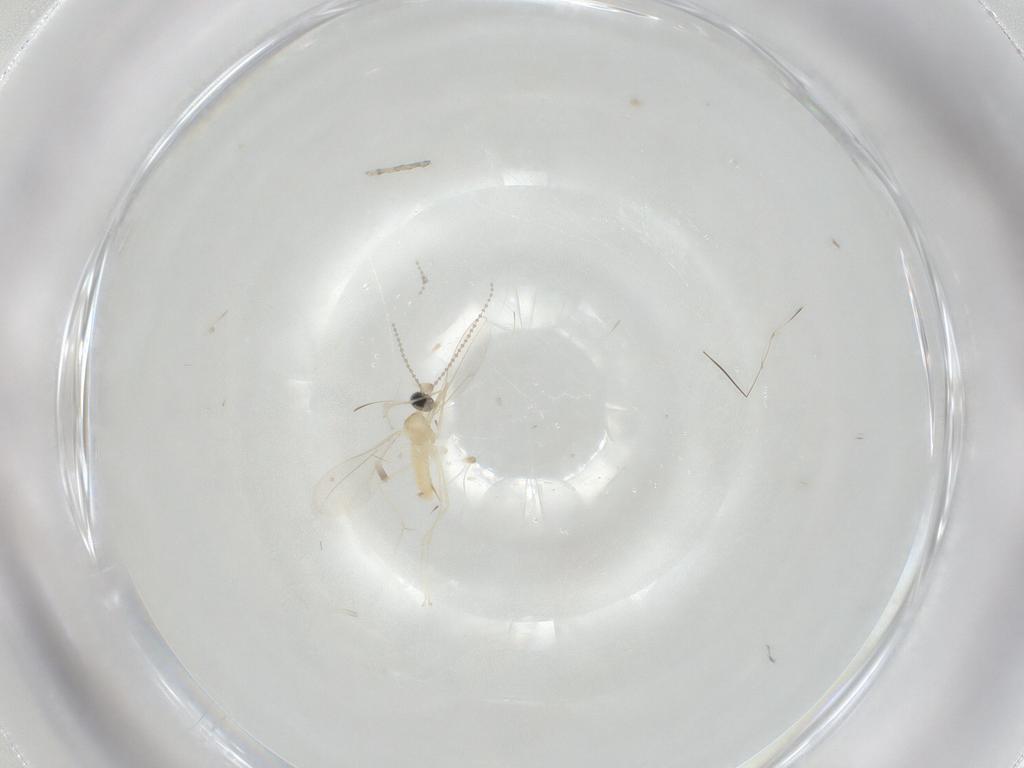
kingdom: Animalia
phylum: Arthropoda
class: Insecta
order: Diptera
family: Cecidomyiidae
